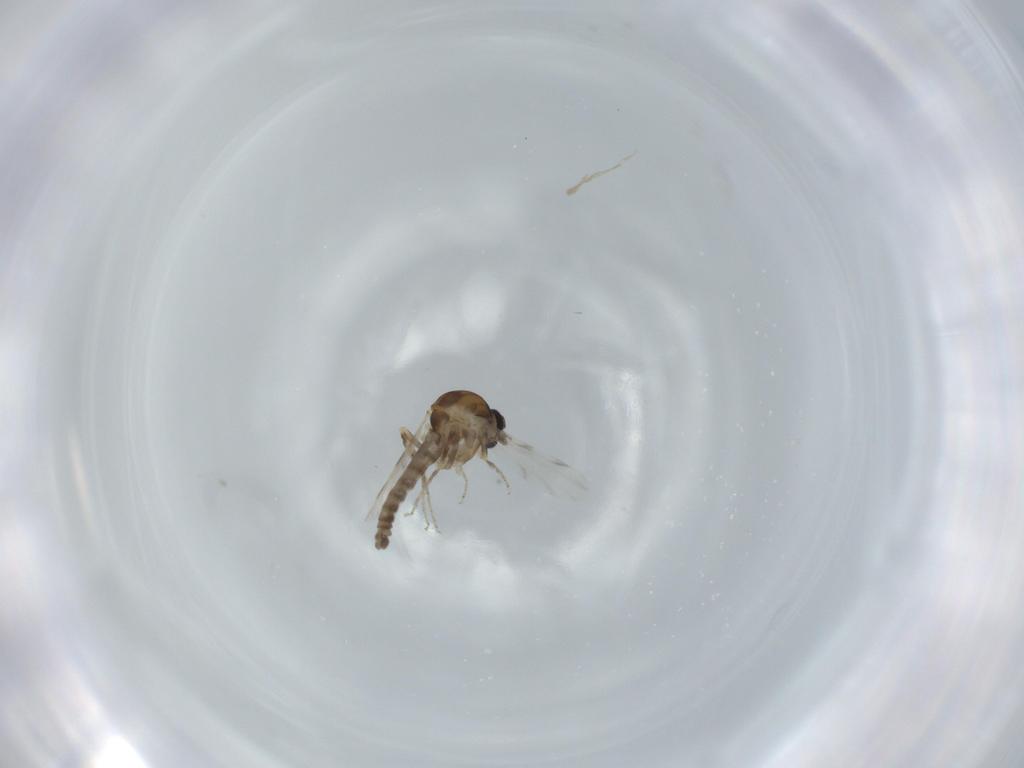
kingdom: Animalia
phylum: Arthropoda
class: Insecta
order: Diptera
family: Ceratopogonidae
